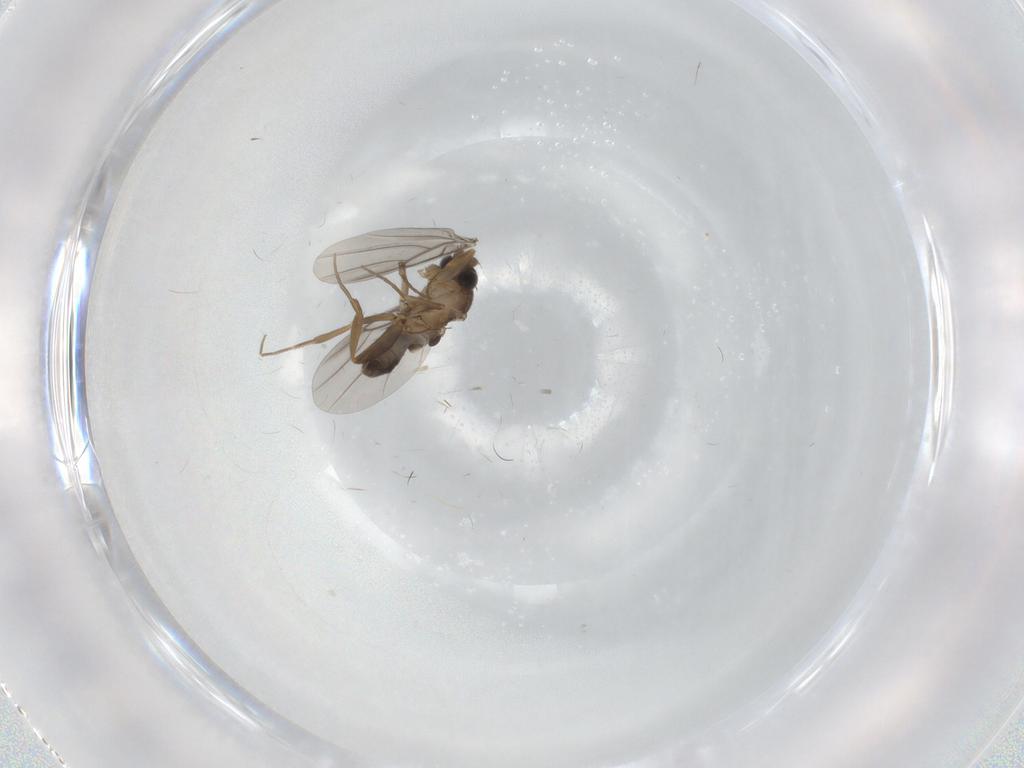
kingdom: Animalia
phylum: Arthropoda
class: Insecta
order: Diptera
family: Cecidomyiidae
